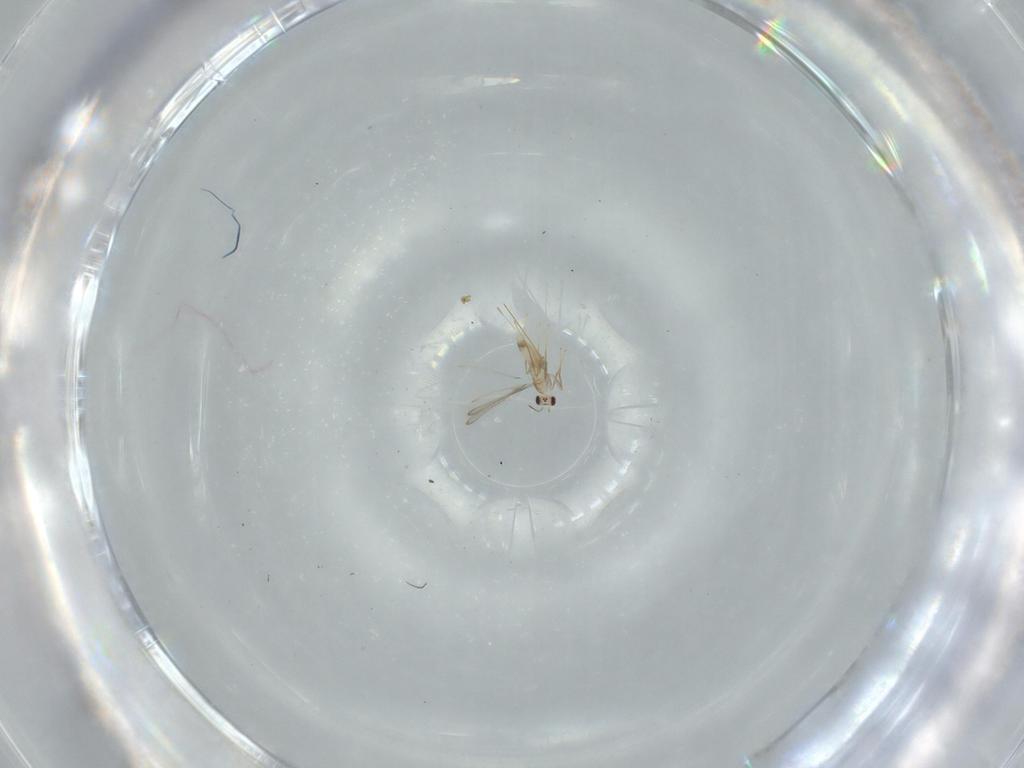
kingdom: Animalia
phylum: Arthropoda
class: Insecta
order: Hymenoptera
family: Mymaridae
